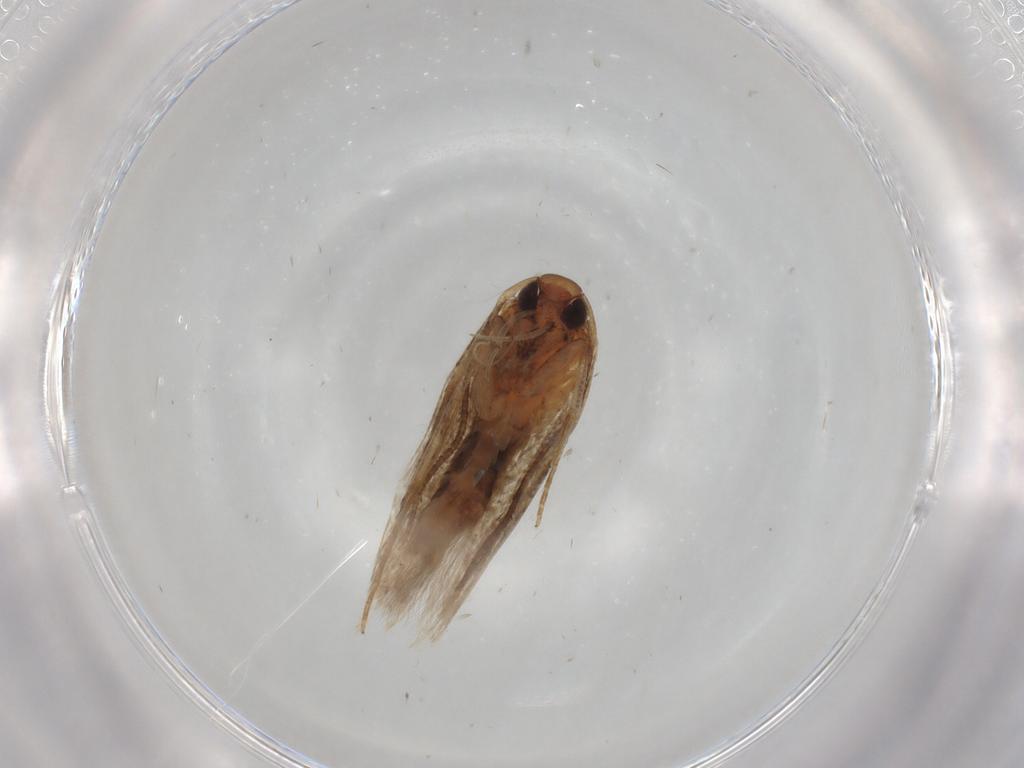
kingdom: Animalia
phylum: Arthropoda
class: Insecta
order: Lepidoptera
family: Cosmopterigidae
